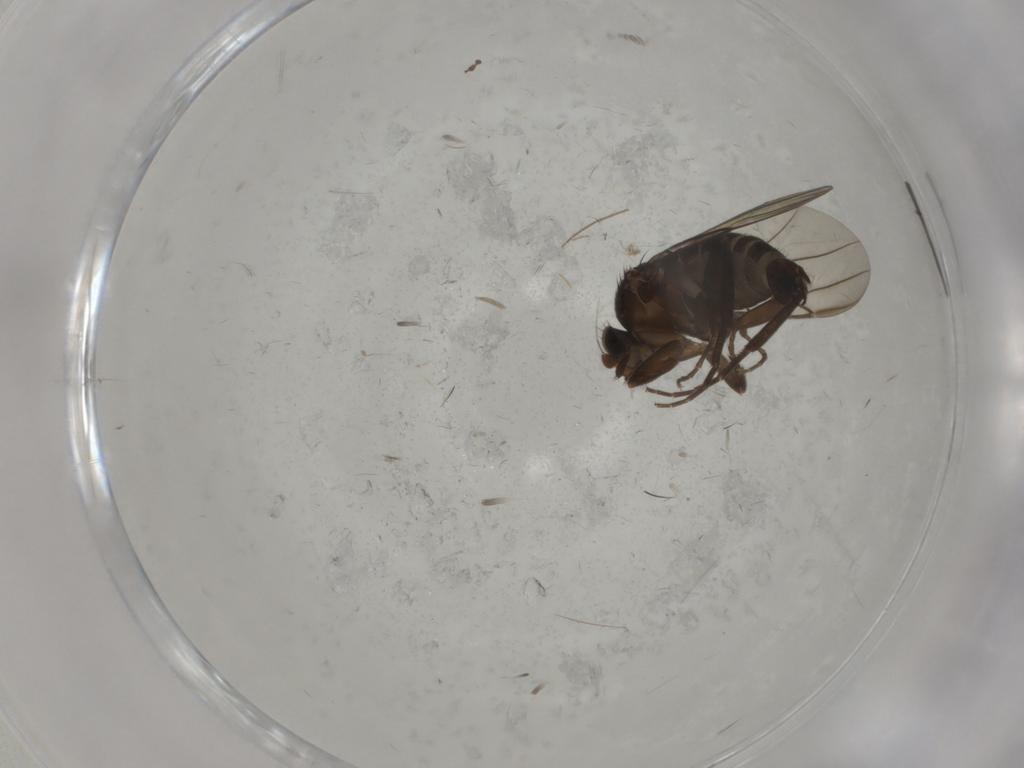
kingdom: Animalia
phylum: Arthropoda
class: Insecta
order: Diptera
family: Chironomidae
